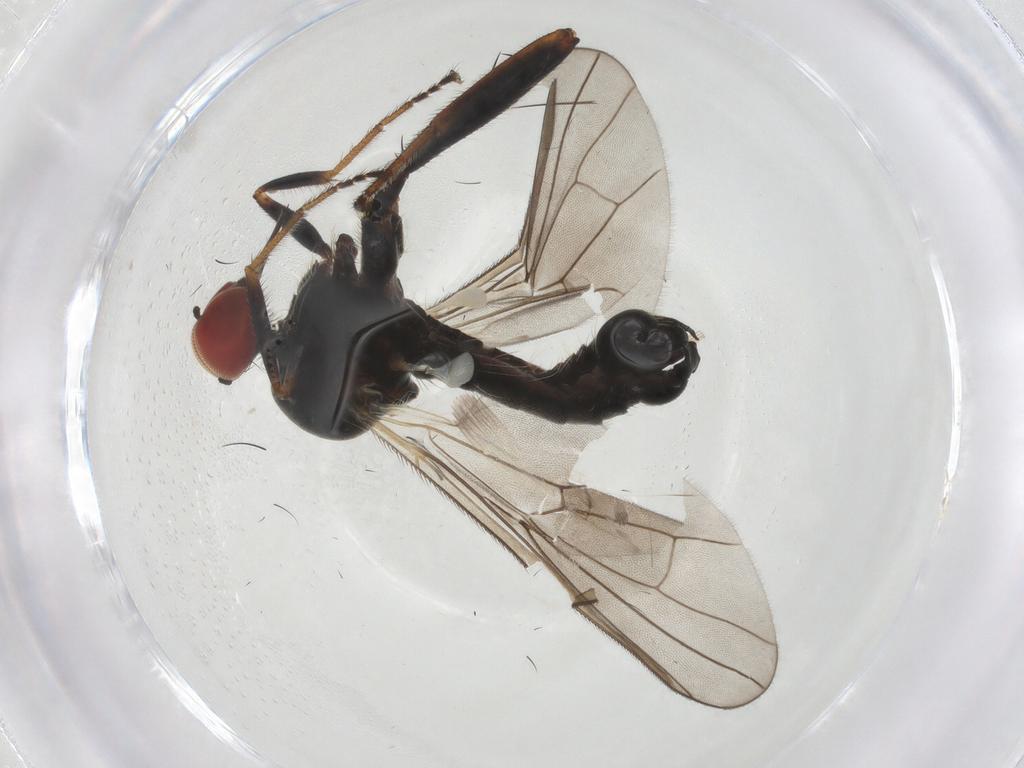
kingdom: Animalia
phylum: Arthropoda
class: Insecta
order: Diptera
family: Hybotidae
